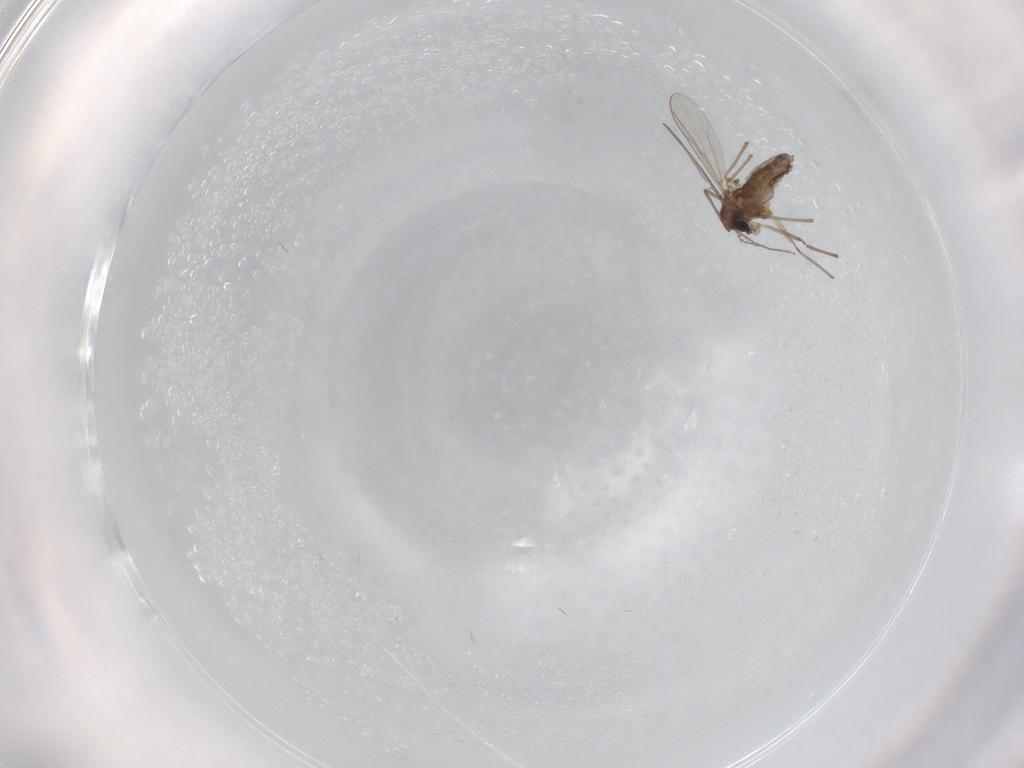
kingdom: Animalia
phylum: Arthropoda
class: Insecta
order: Diptera
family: Chironomidae
